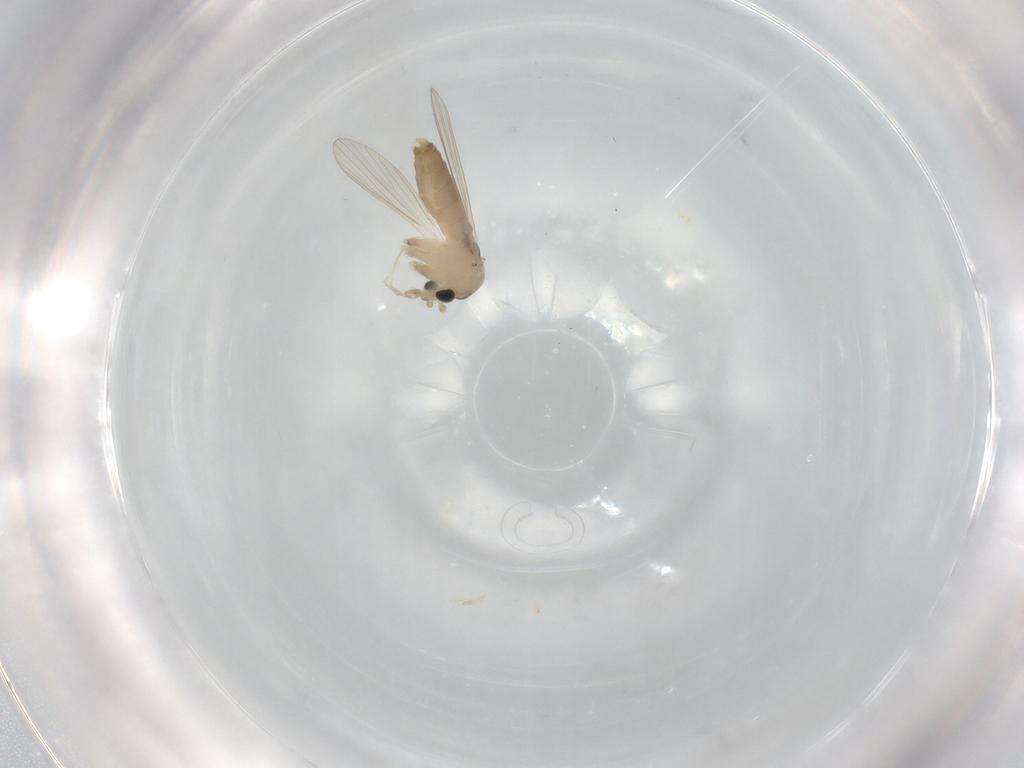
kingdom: Animalia
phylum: Arthropoda
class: Insecta
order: Diptera
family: Psychodidae
